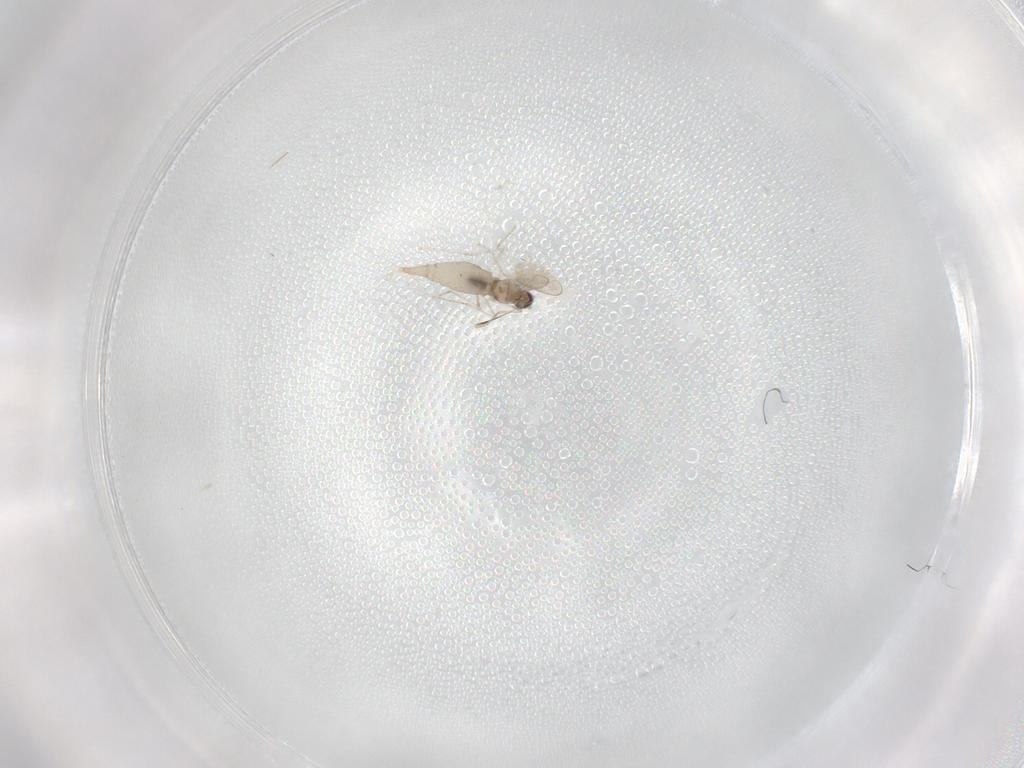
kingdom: Animalia
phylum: Arthropoda
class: Insecta
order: Diptera
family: Cecidomyiidae
